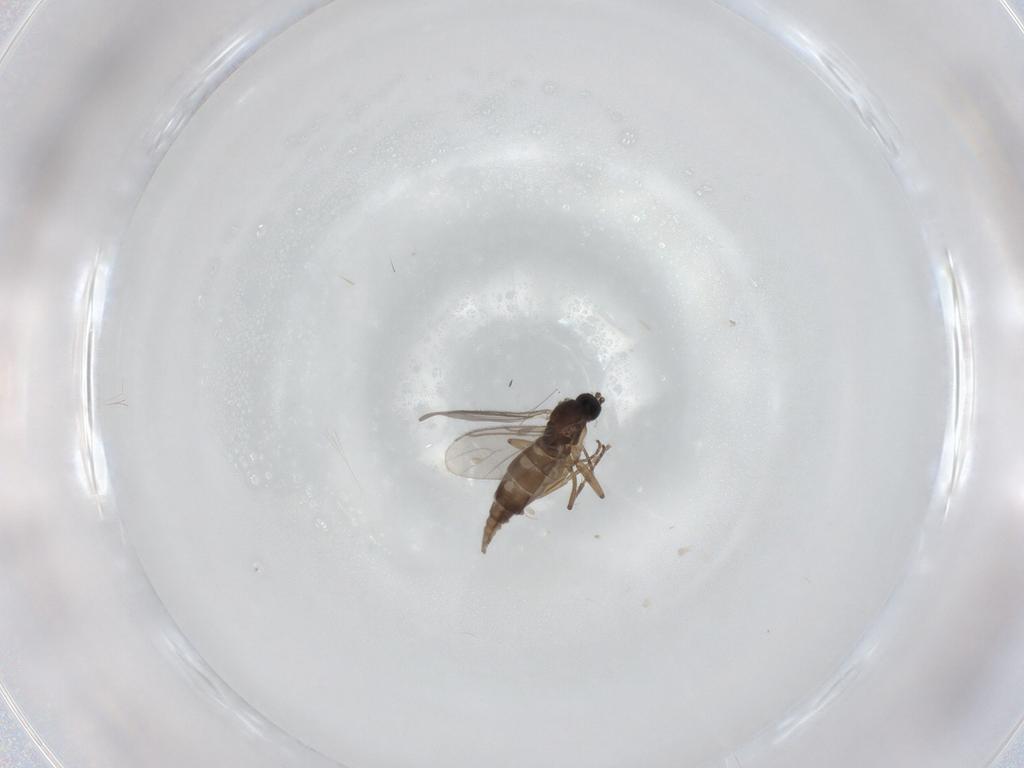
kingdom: Animalia
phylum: Arthropoda
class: Insecta
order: Diptera
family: Sciaridae
